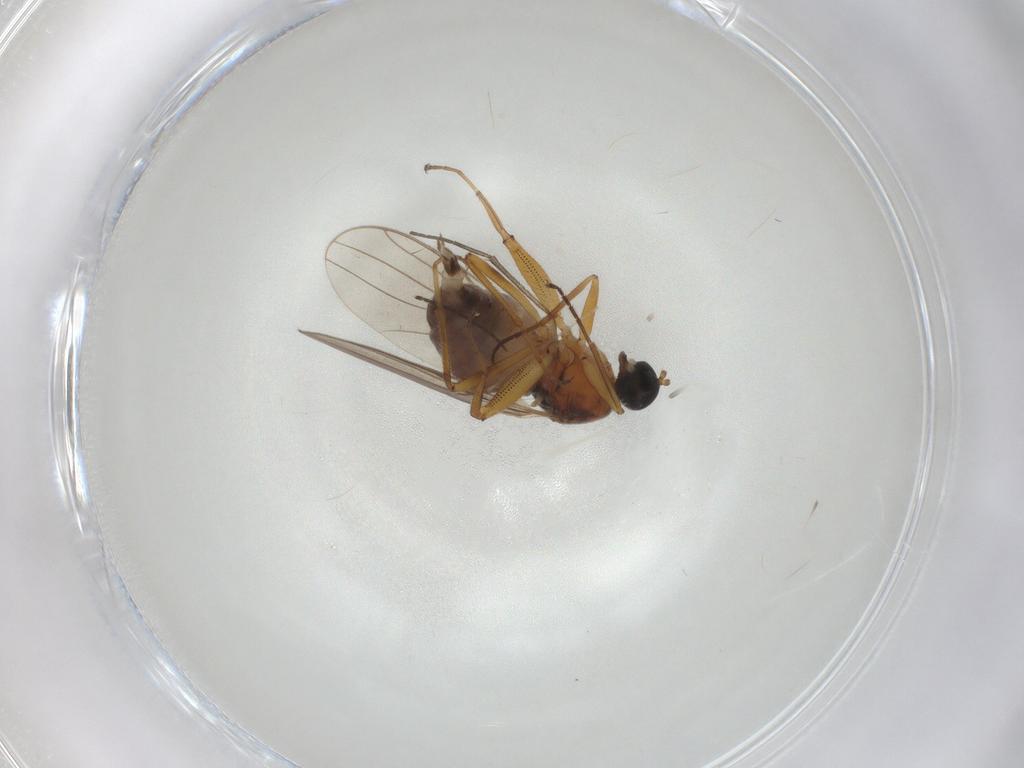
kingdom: Animalia
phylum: Arthropoda
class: Insecta
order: Diptera
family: Hybotidae
